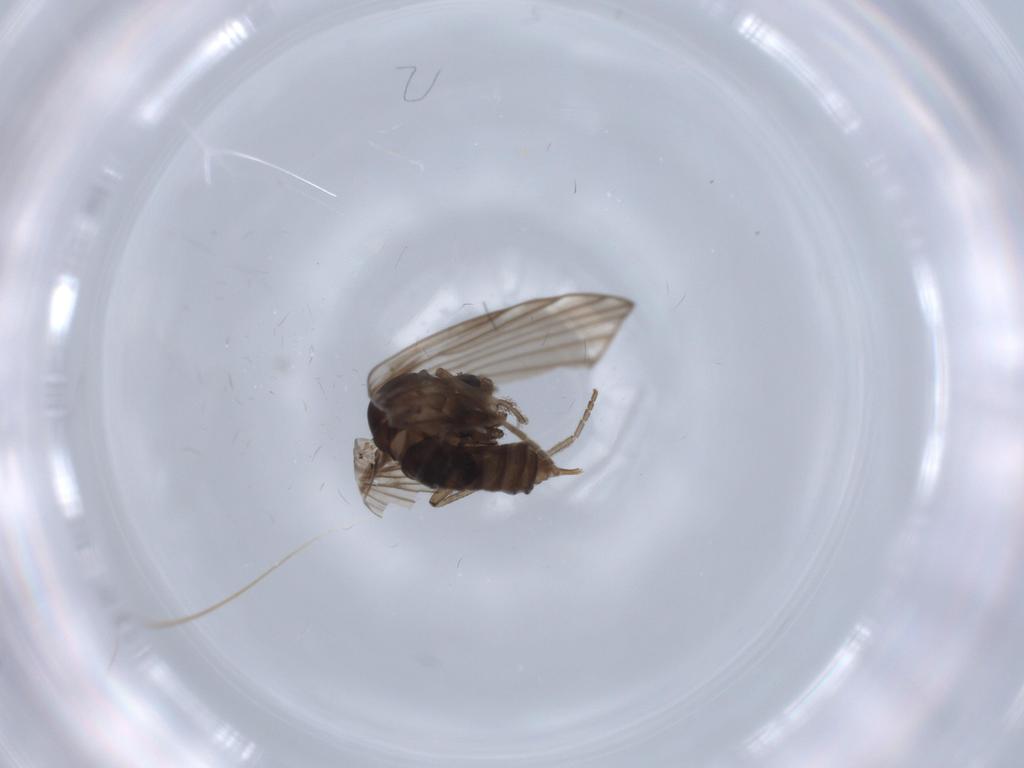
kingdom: Animalia
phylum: Arthropoda
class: Insecta
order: Diptera
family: Psychodidae
